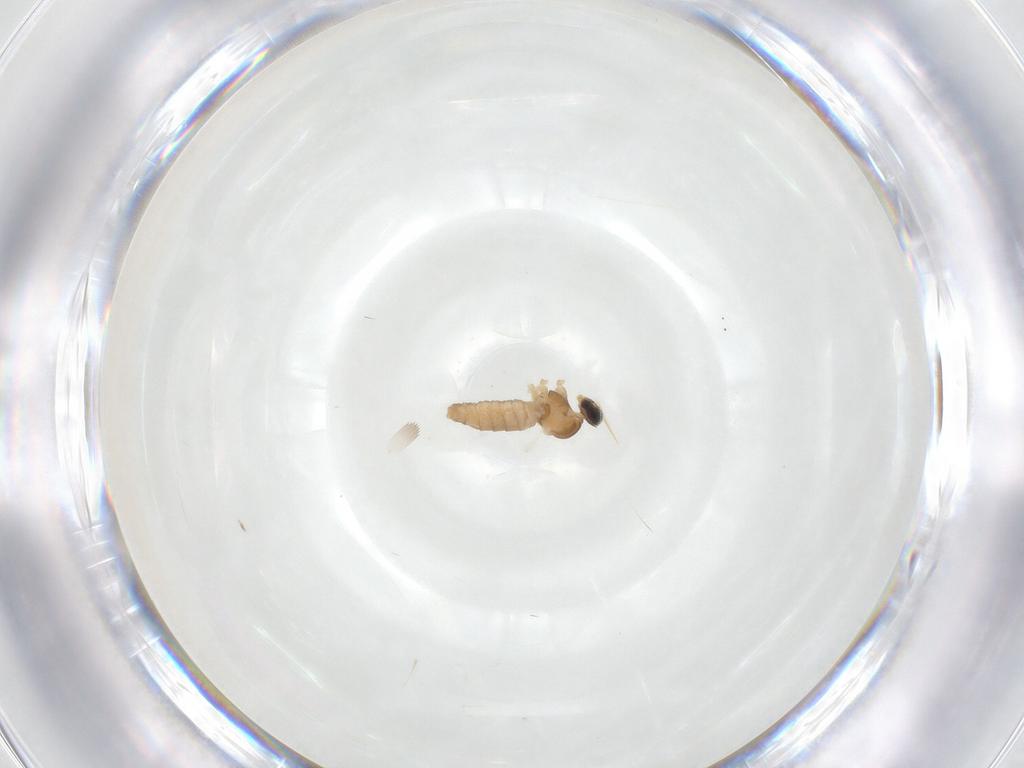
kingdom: Animalia
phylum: Arthropoda
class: Insecta
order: Diptera
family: Cecidomyiidae
